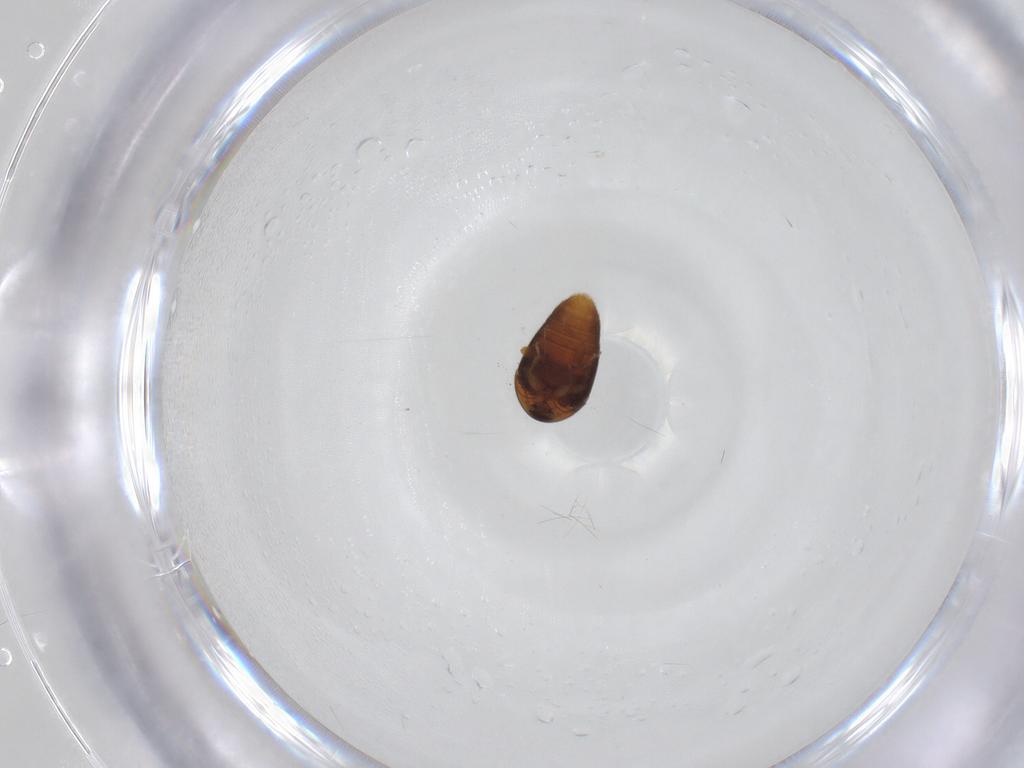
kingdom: Animalia
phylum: Arthropoda
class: Insecta
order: Coleoptera
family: Corylophidae
